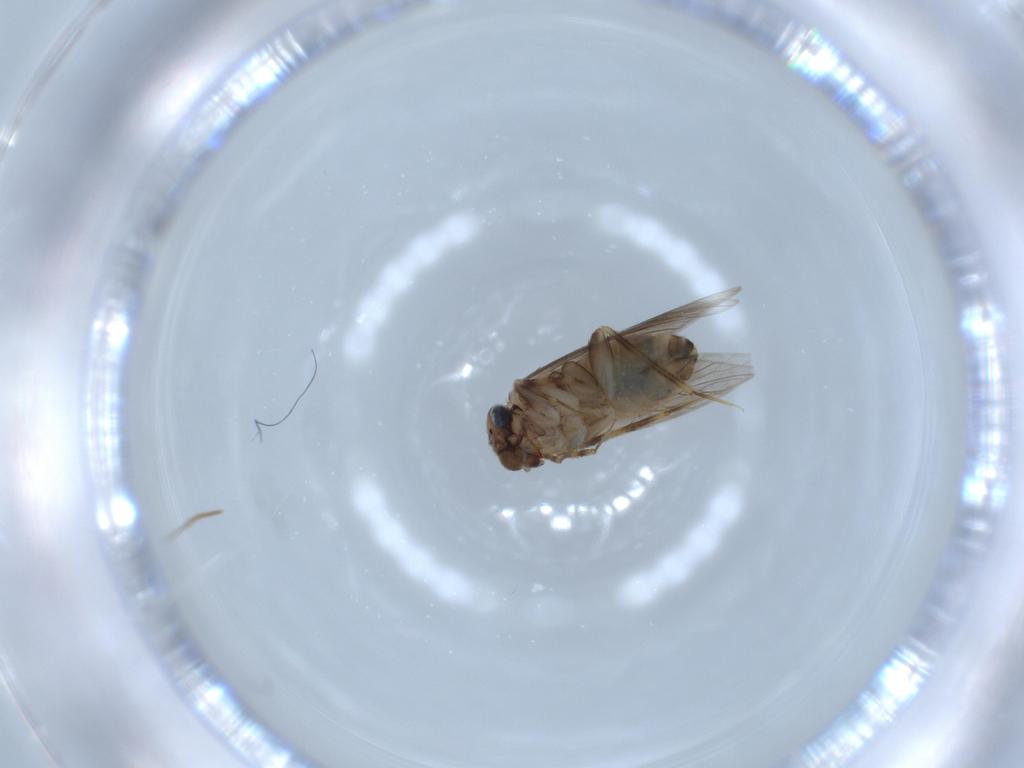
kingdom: Animalia
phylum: Arthropoda
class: Insecta
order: Psocodea
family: Lepidopsocidae
